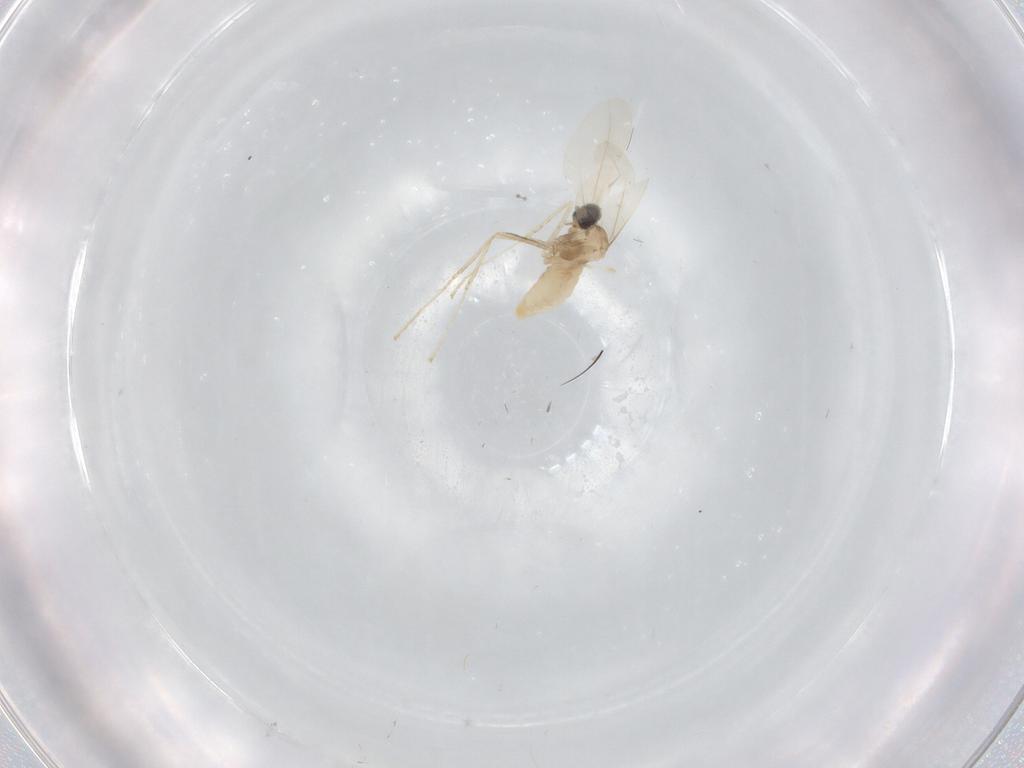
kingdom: Animalia
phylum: Arthropoda
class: Insecta
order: Diptera
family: Cecidomyiidae
